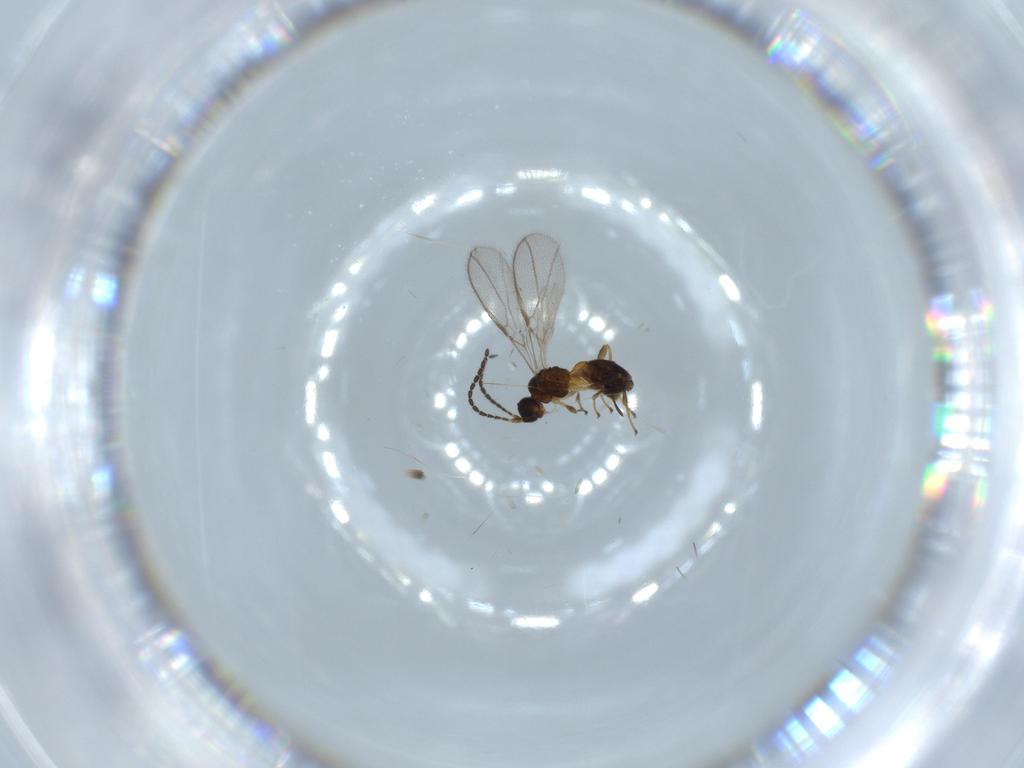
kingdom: Animalia
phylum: Arthropoda
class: Insecta
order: Hymenoptera
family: Braconidae
